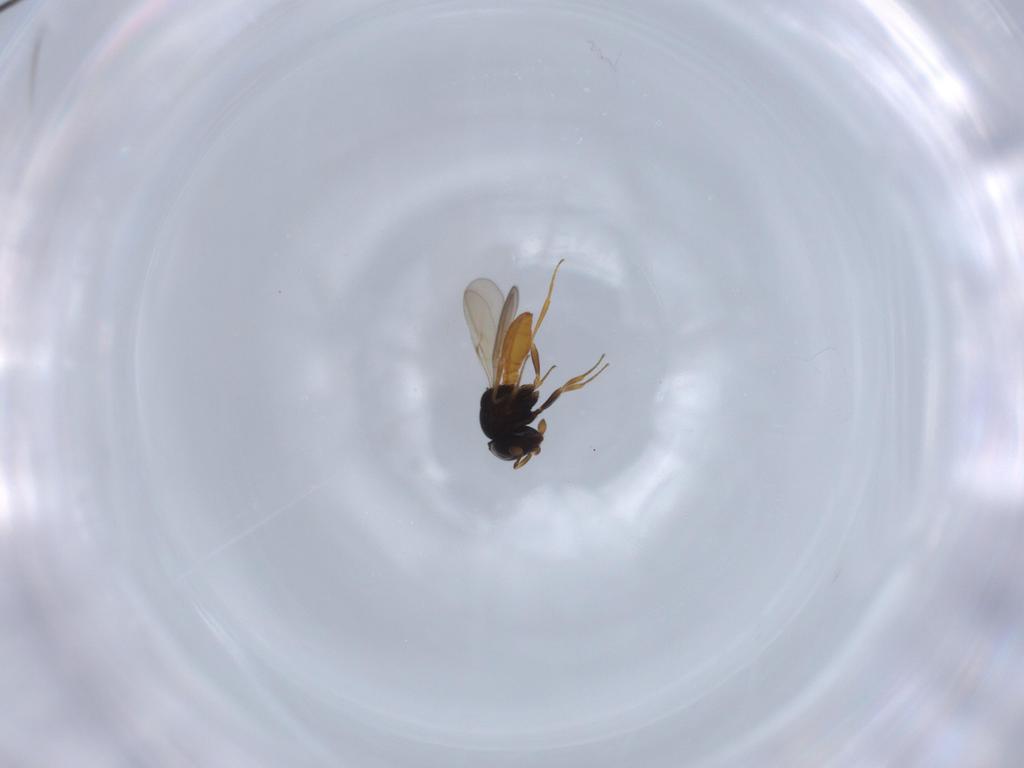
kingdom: Animalia
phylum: Arthropoda
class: Insecta
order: Hymenoptera
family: Scelionidae
